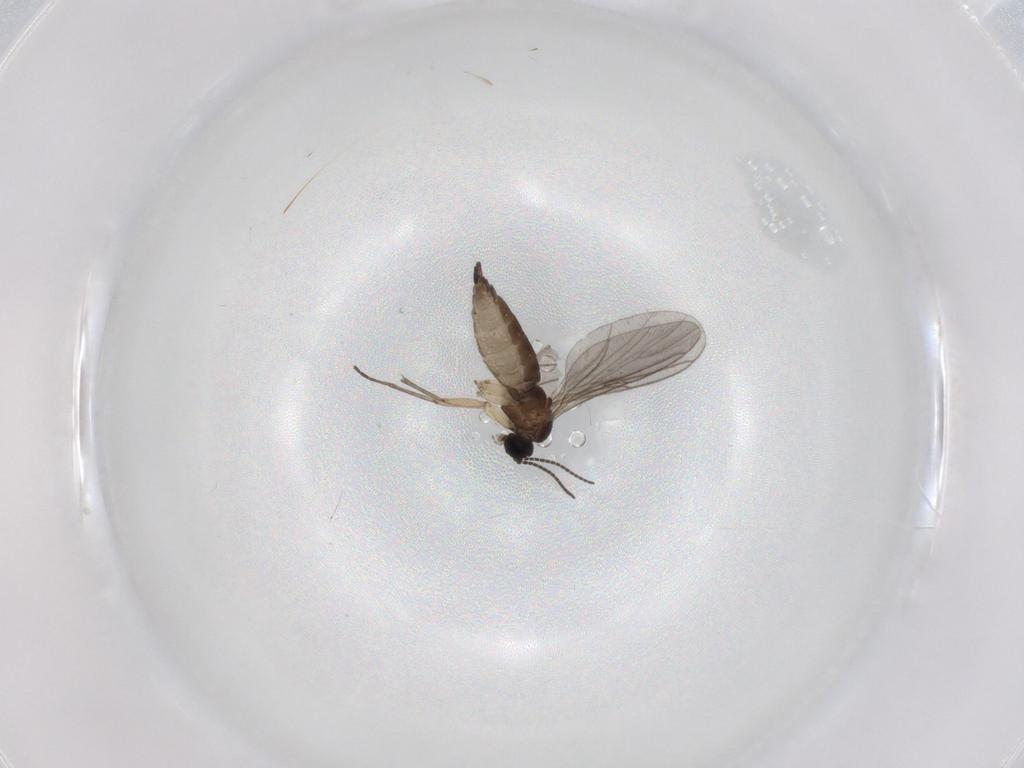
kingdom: Animalia
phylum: Arthropoda
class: Insecta
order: Diptera
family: Sciaridae
